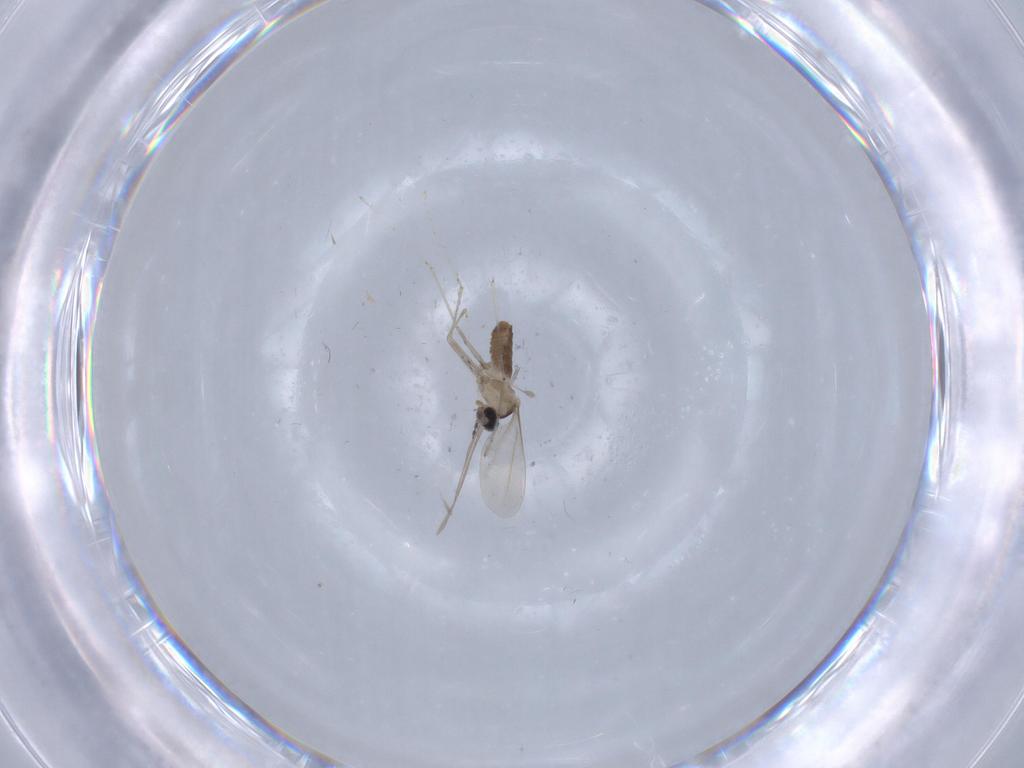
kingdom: Animalia
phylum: Arthropoda
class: Insecta
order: Diptera
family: Cecidomyiidae
